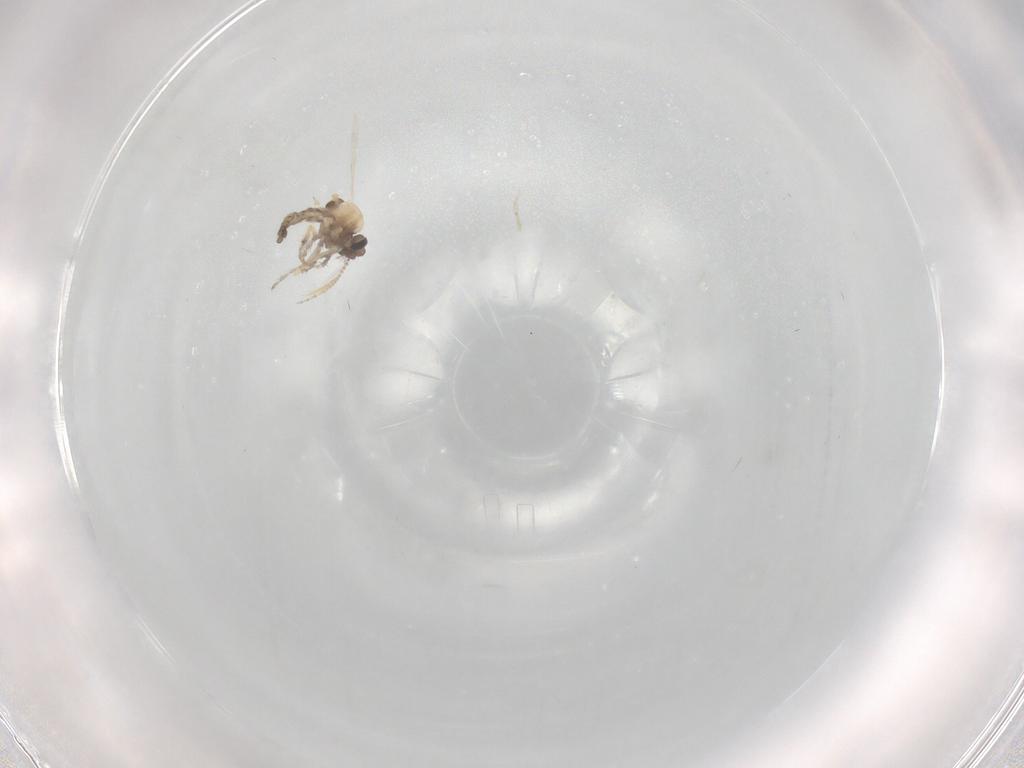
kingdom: Animalia
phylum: Arthropoda
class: Insecta
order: Diptera
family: Ceratopogonidae
